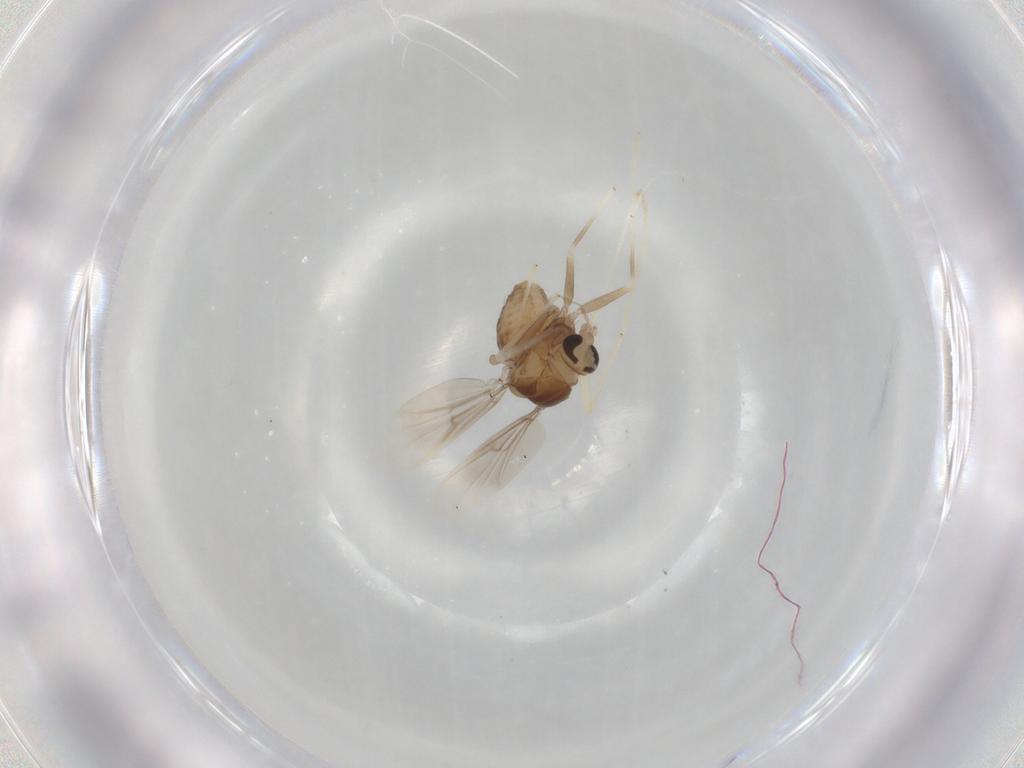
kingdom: Animalia
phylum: Arthropoda
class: Insecta
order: Diptera
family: Chironomidae
